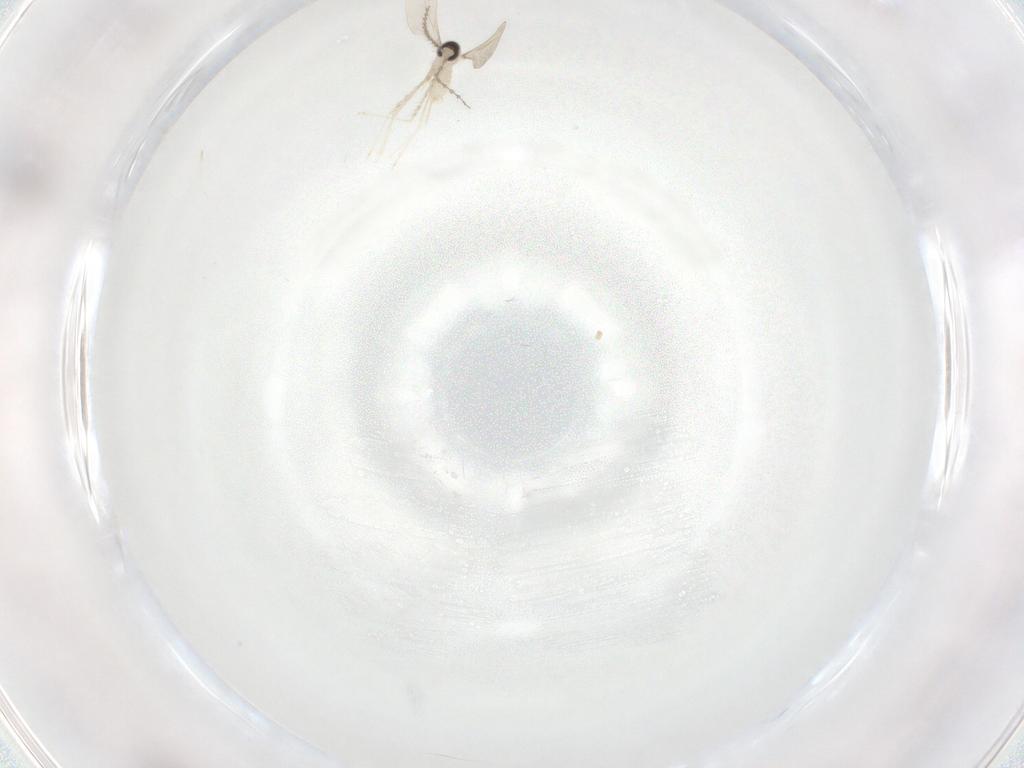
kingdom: Animalia
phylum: Arthropoda
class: Insecta
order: Diptera
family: Cecidomyiidae
